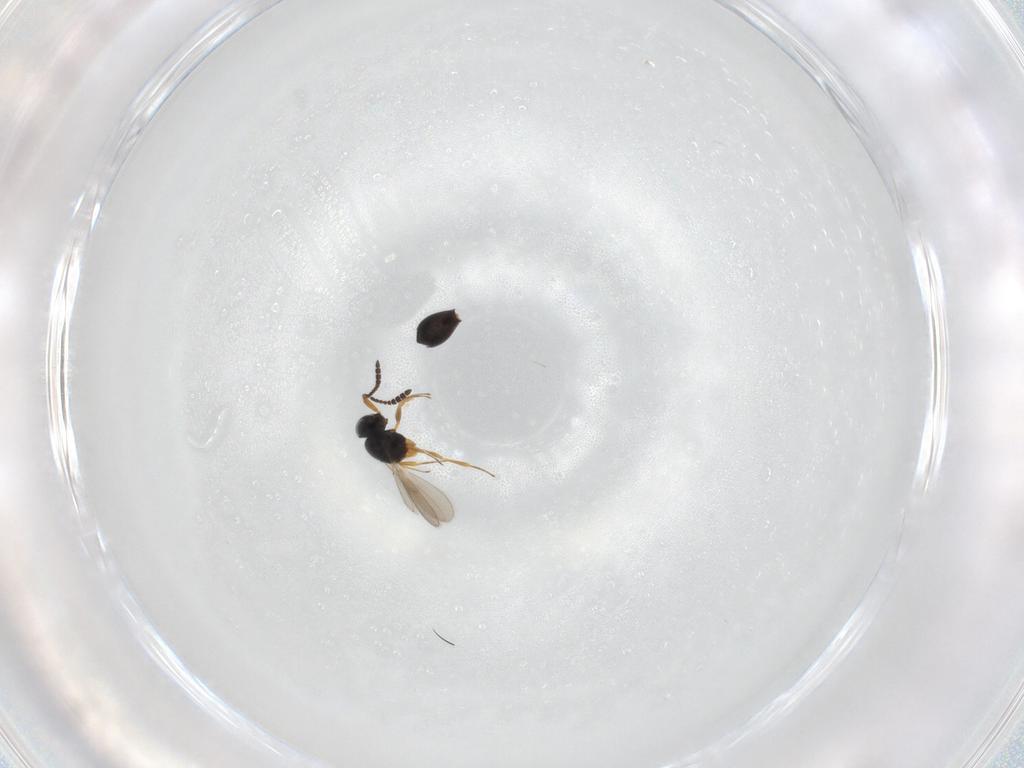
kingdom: Animalia
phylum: Arthropoda
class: Insecta
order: Hymenoptera
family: Scelionidae
